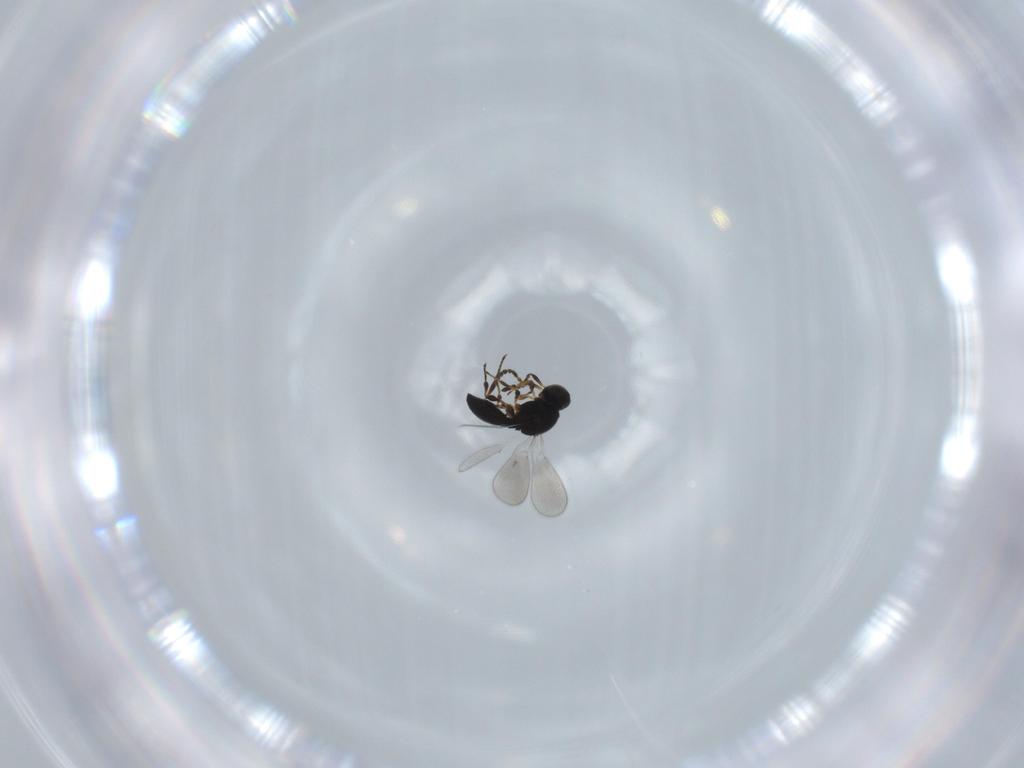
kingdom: Animalia
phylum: Arthropoda
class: Insecta
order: Hymenoptera
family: Platygastridae
